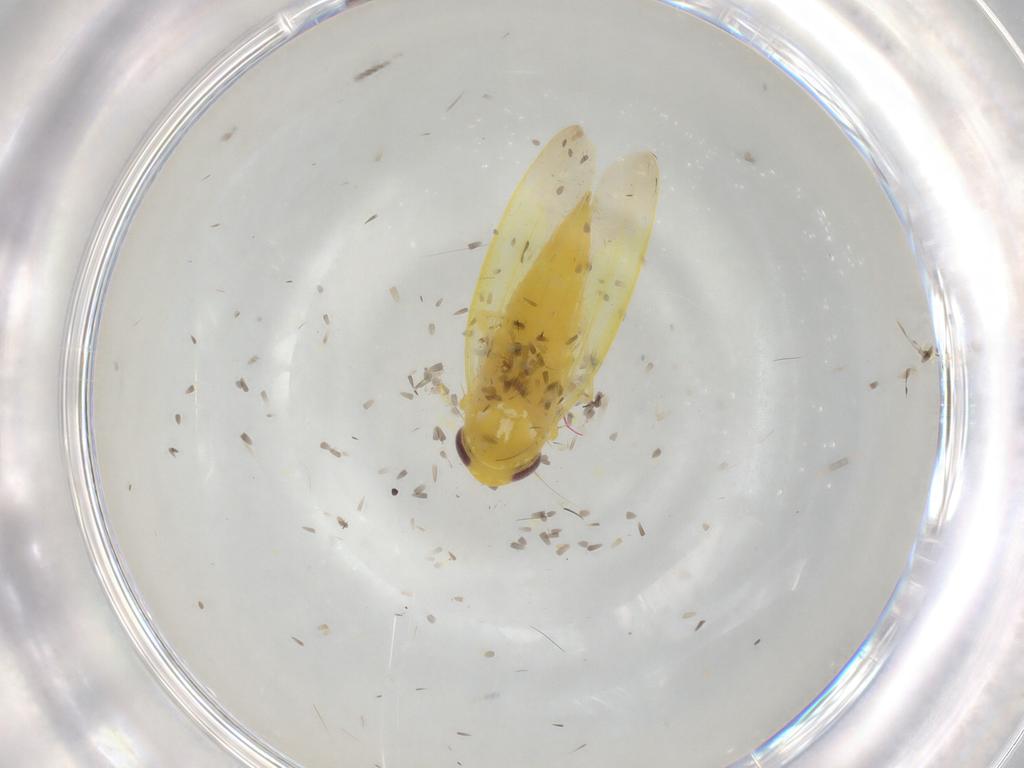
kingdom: Animalia
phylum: Arthropoda
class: Insecta
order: Hemiptera
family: Cicadellidae
